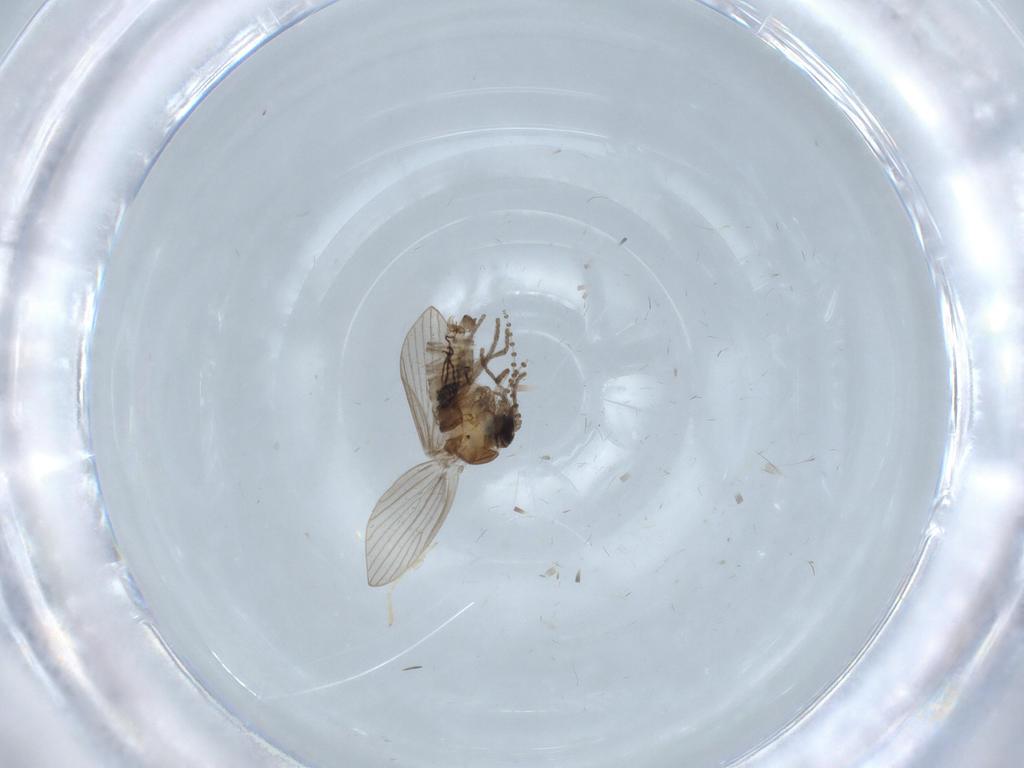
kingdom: Animalia
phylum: Arthropoda
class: Insecta
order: Diptera
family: Psychodidae
